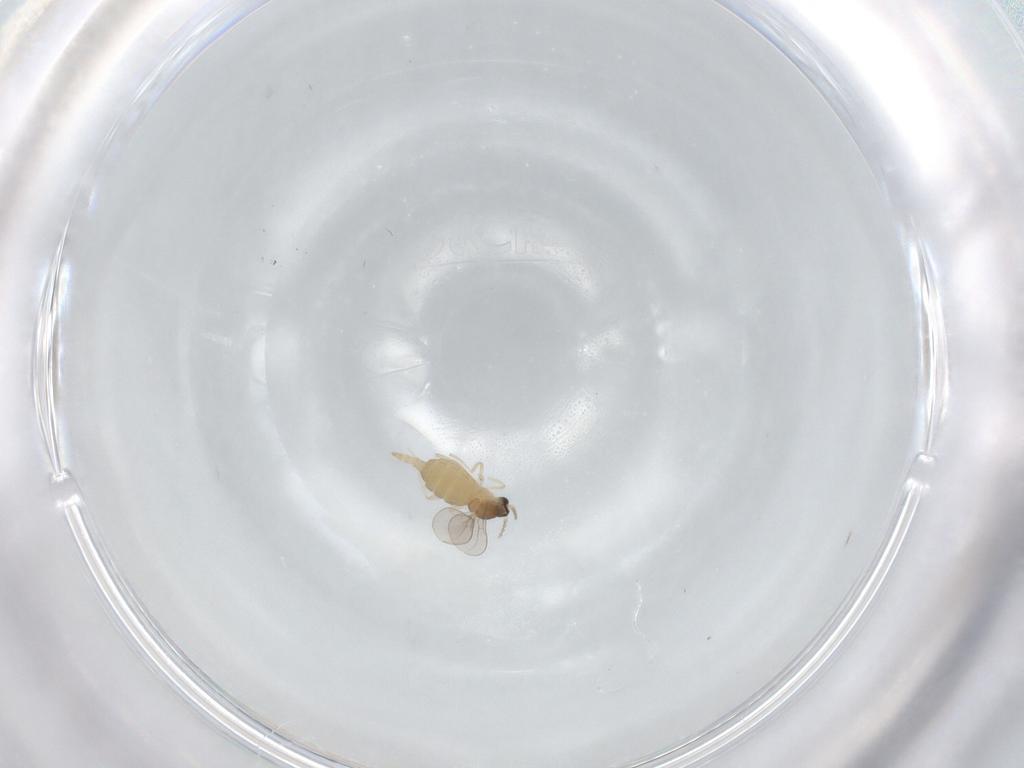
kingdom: Animalia
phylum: Arthropoda
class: Insecta
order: Diptera
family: Cecidomyiidae
